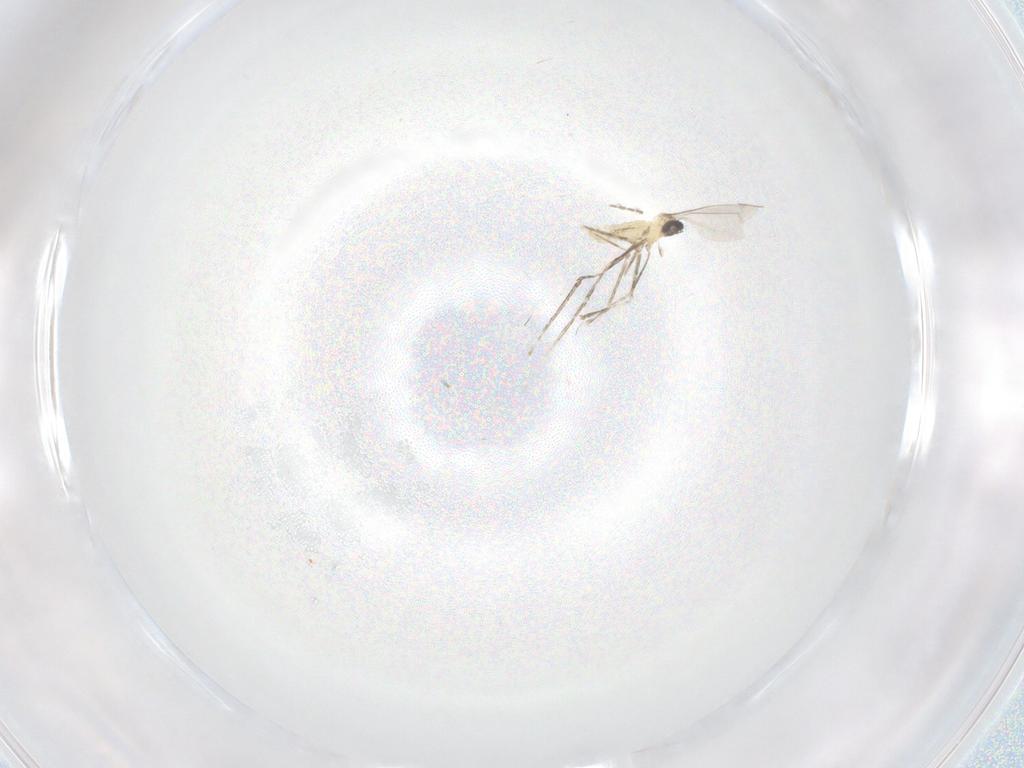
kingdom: Animalia
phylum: Arthropoda
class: Insecta
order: Diptera
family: Cecidomyiidae
